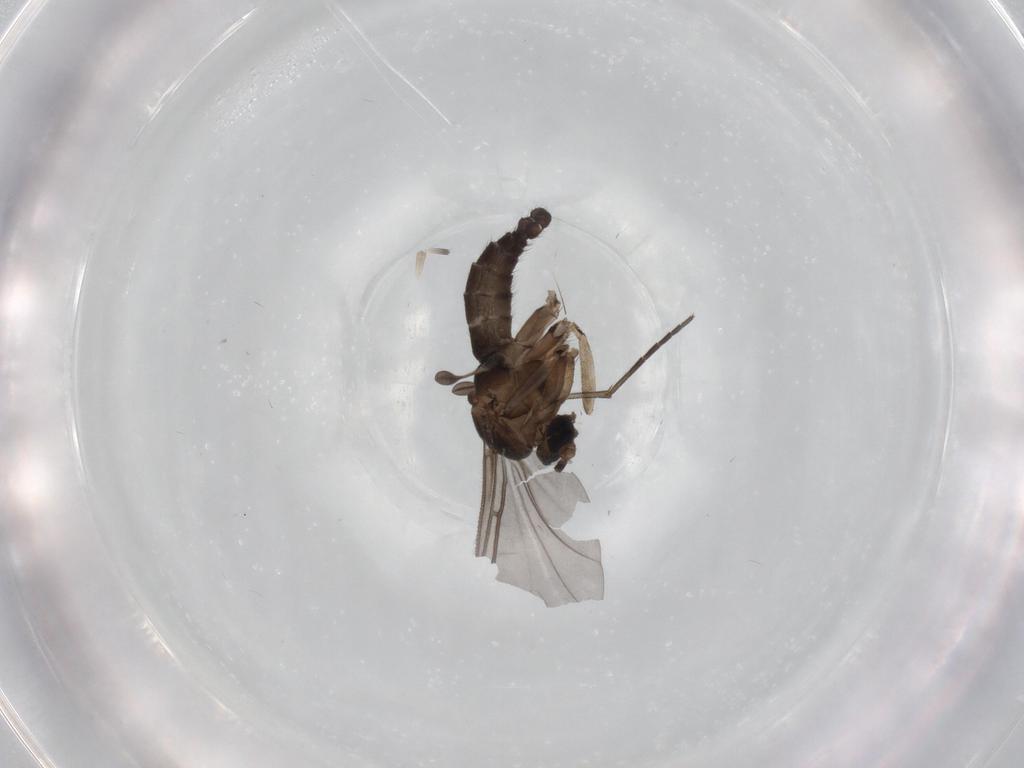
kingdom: Animalia
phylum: Arthropoda
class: Insecta
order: Diptera
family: Sciaridae
